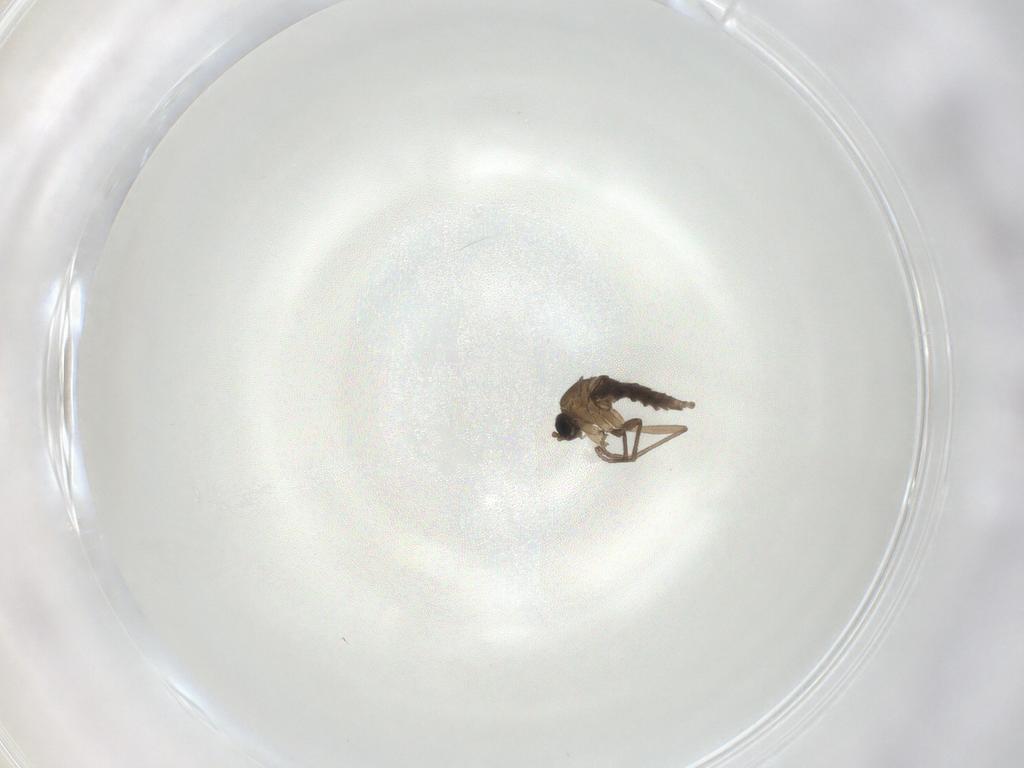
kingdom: Animalia
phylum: Arthropoda
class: Insecta
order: Diptera
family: Sciaridae
